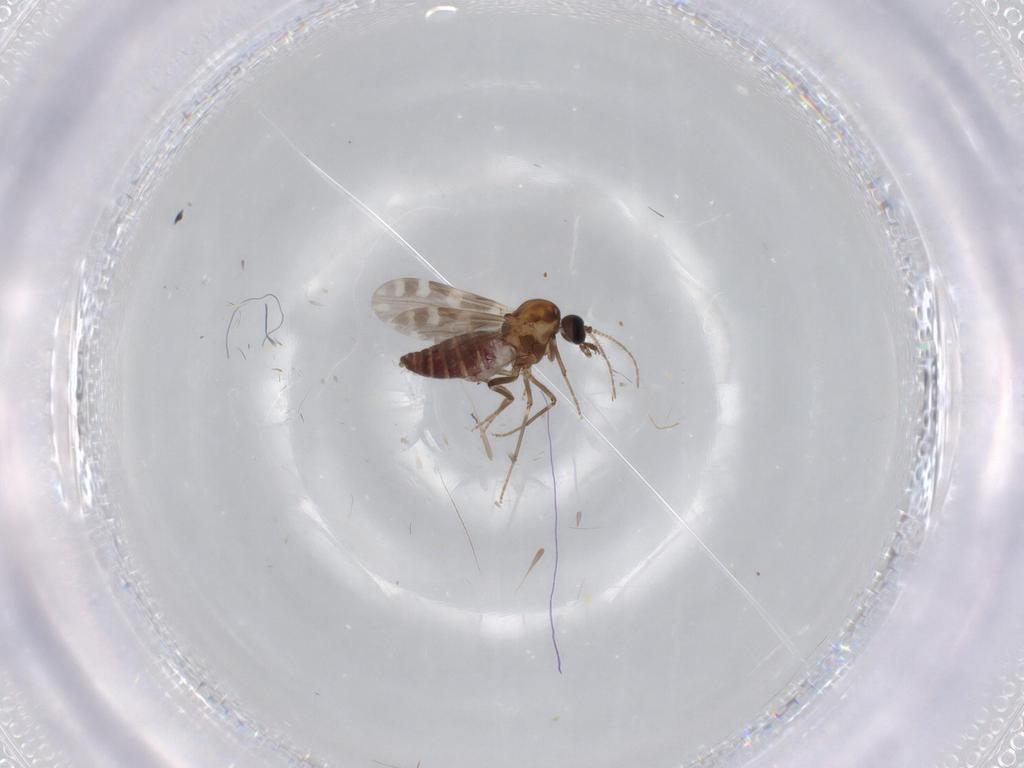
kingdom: Animalia
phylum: Arthropoda
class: Insecta
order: Diptera
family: Ceratopogonidae
